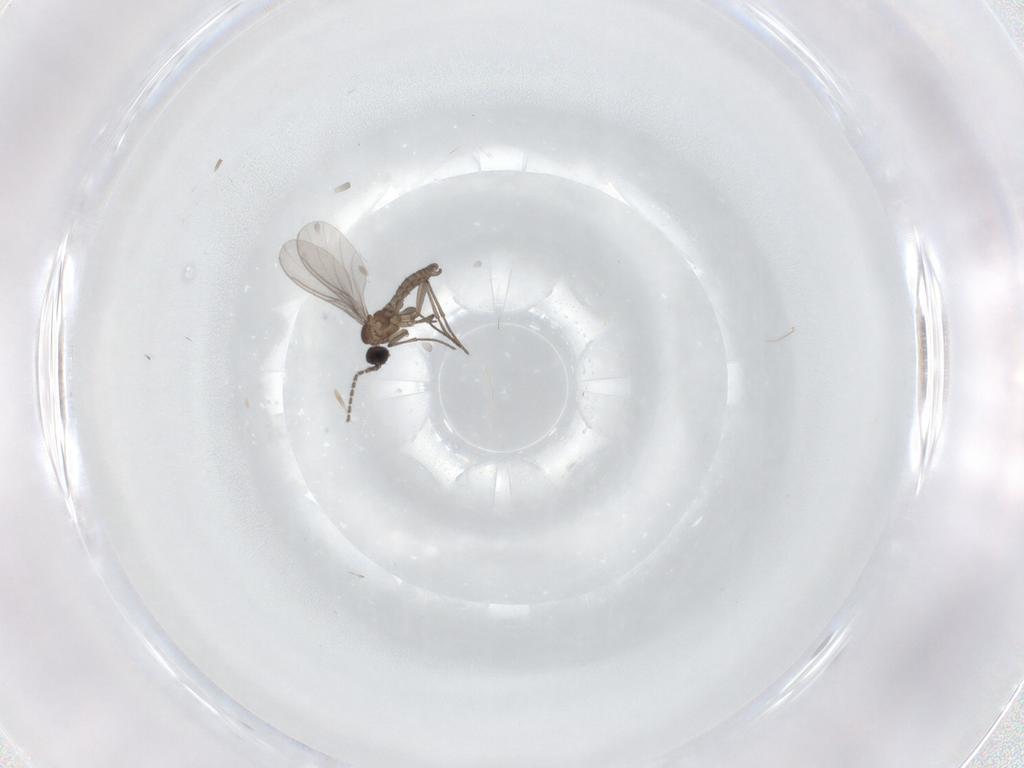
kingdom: Animalia
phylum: Arthropoda
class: Insecta
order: Diptera
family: Sciaridae
